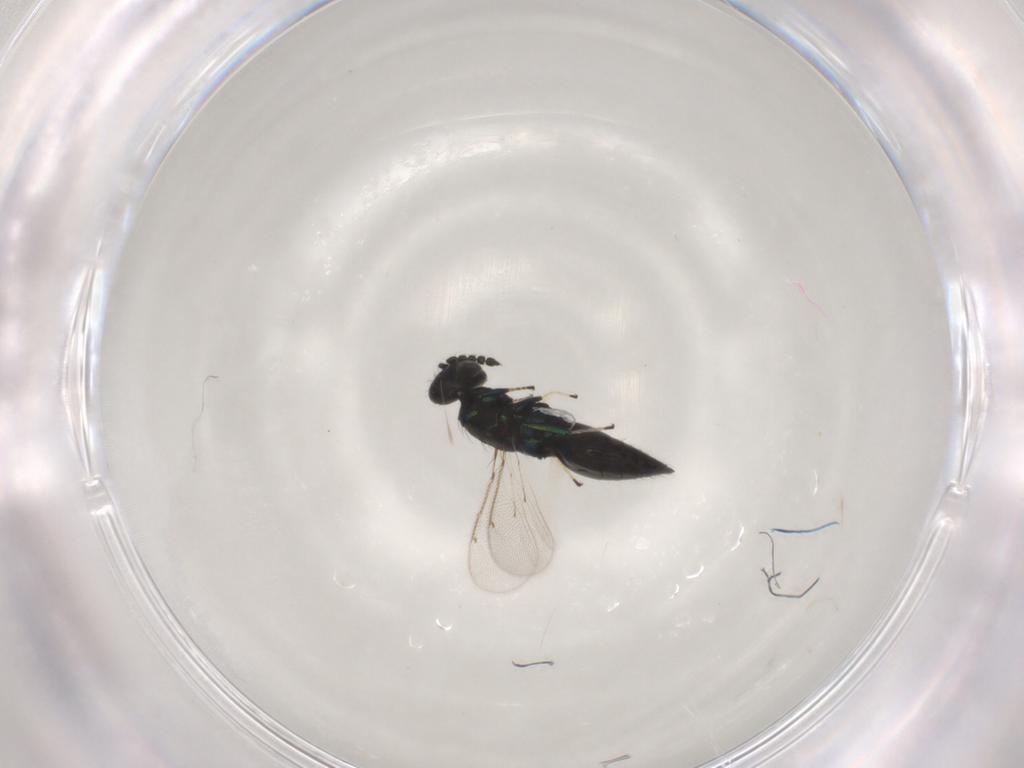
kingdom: Animalia
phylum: Arthropoda
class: Insecta
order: Hymenoptera
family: Eulophidae
